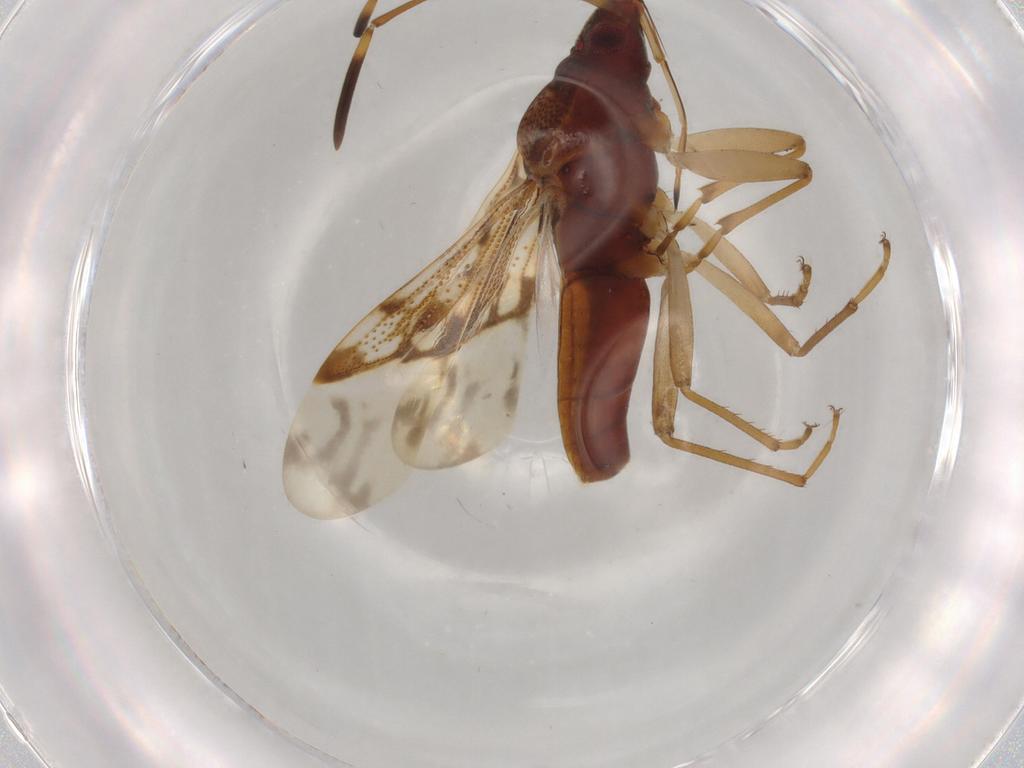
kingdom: Animalia
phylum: Arthropoda
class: Insecta
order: Hemiptera
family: Rhyparochromidae
